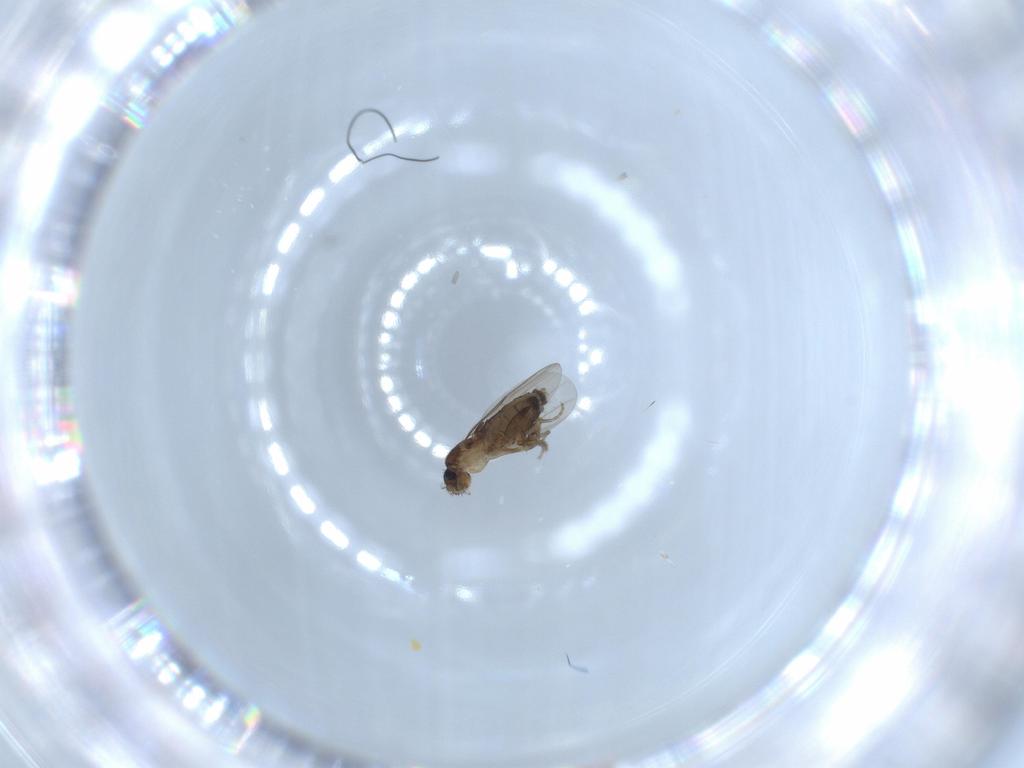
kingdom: Animalia
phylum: Arthropoda
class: Insecta
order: Diptera
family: Sciaridae
